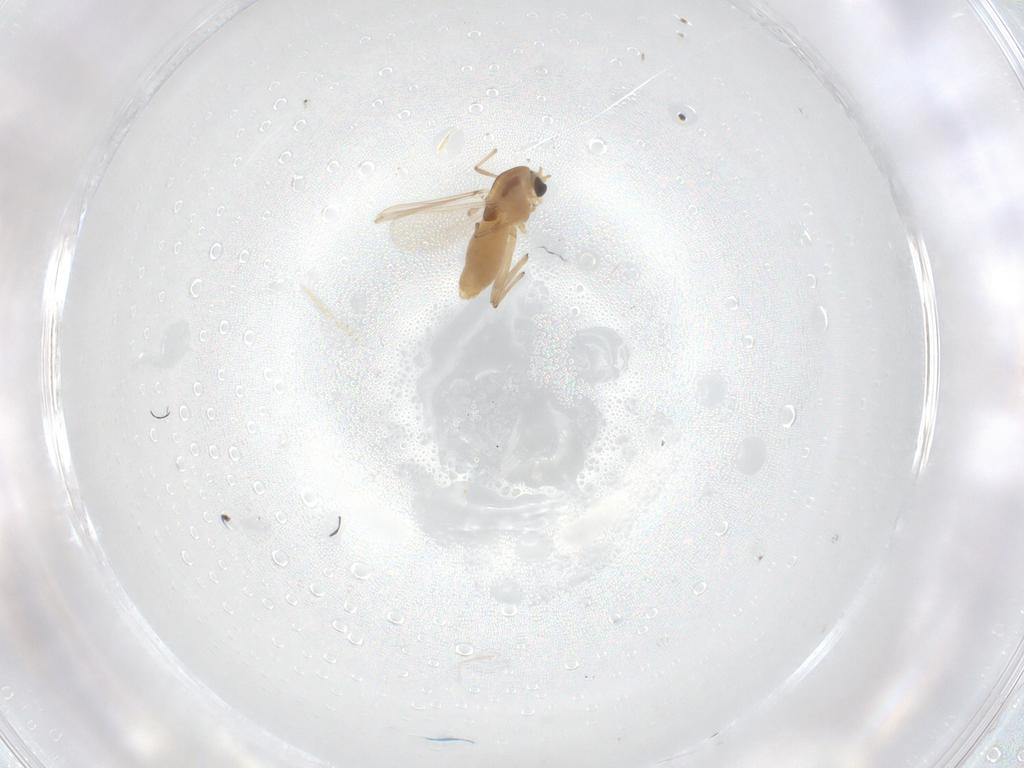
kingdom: Animalia
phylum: Arthropoda
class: Insecta
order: Diptera
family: Chironomidae
